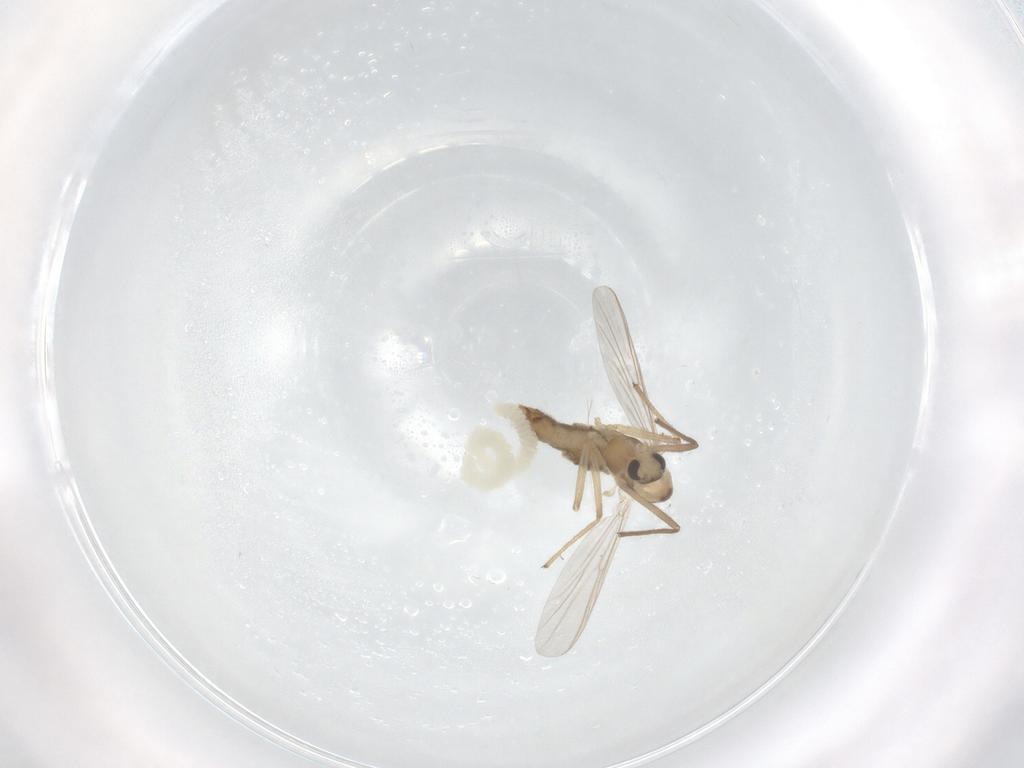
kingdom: Animalia
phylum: Arthropoda
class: Insecta
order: Diptera
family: Chironomidae
